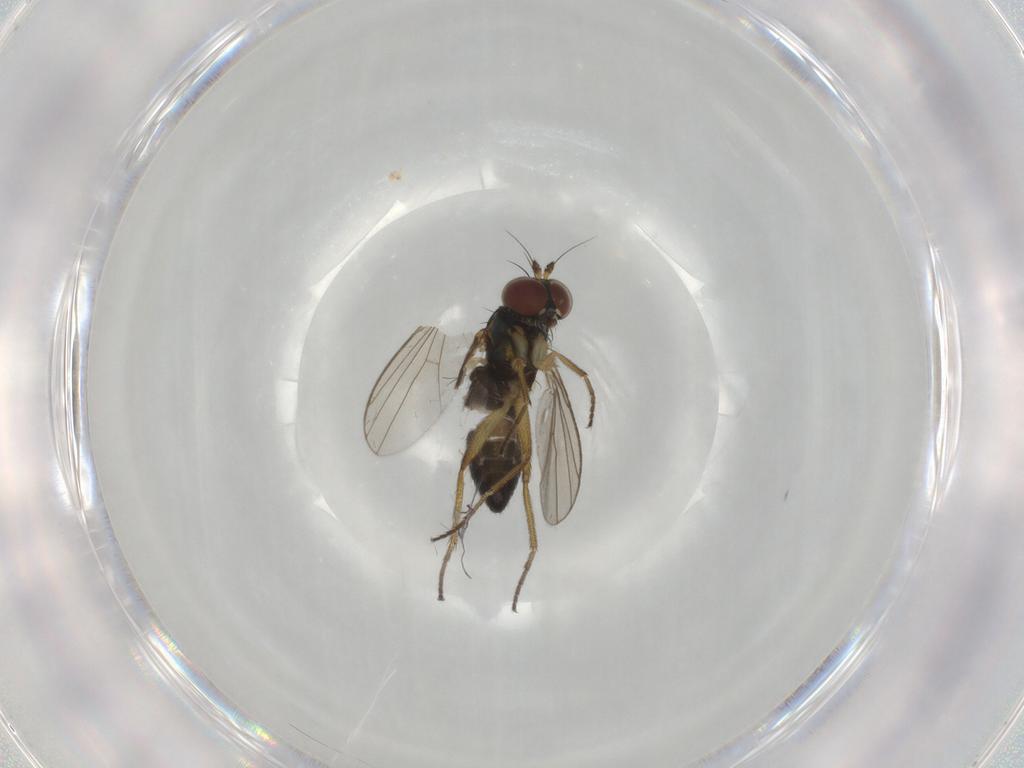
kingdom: Animalia
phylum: Arthropoda
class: Insecta
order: Diptera
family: Dolichopodidae
